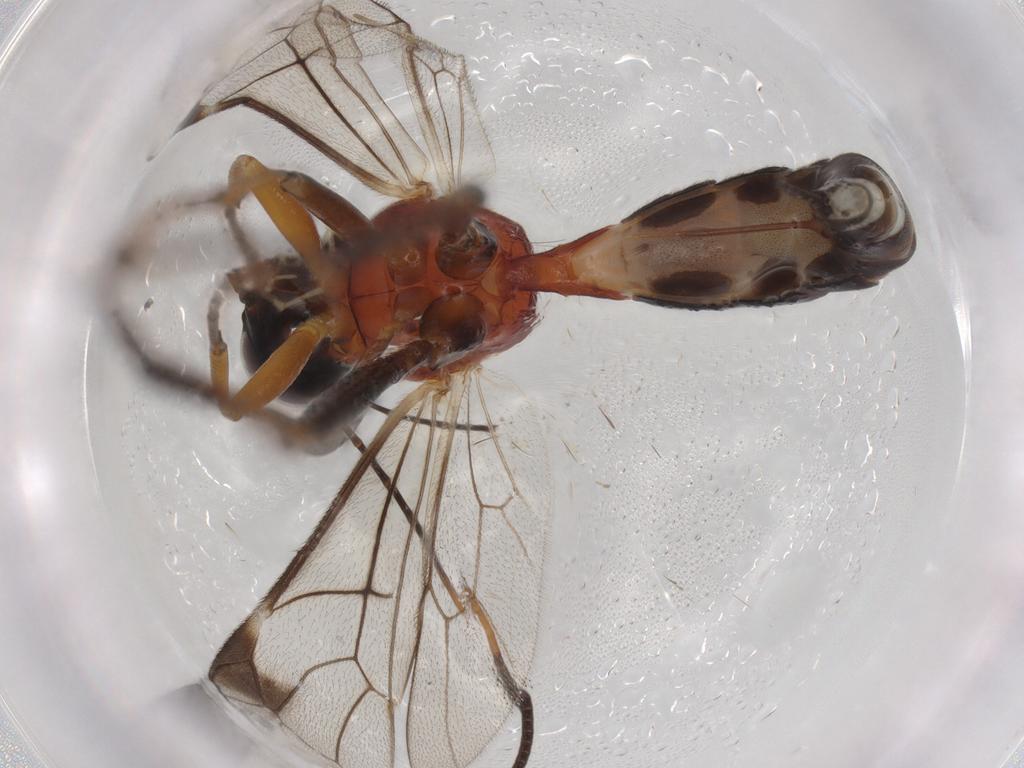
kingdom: Animalia
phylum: Arthropoda
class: Insecta
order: Hymenoptera
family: Ichneumonidae
